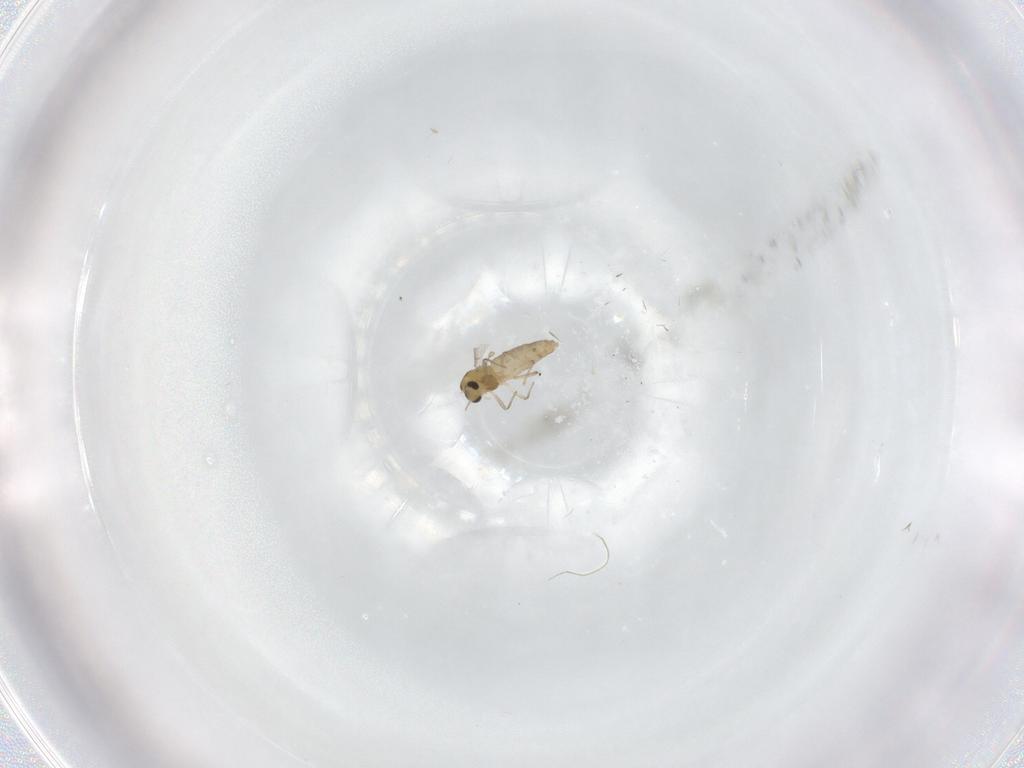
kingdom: Animalia
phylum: Arthropoda
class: Insecta
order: Diptera
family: Chironomidae
